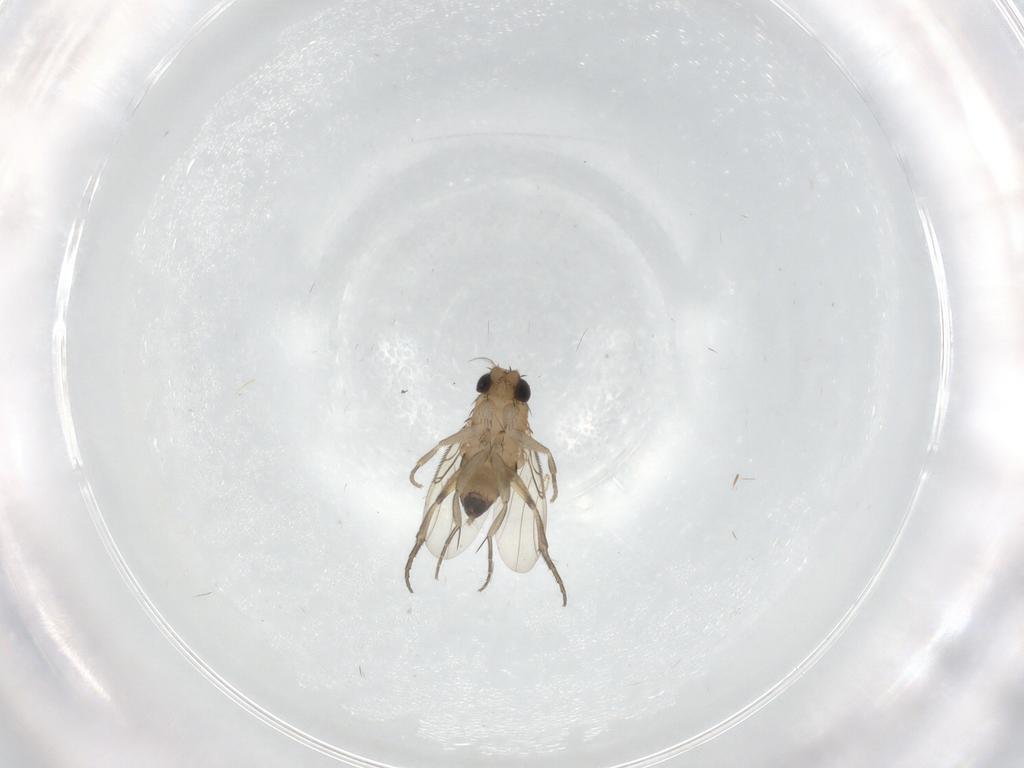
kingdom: Animalia
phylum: Arthropoda
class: Insecta
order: Diptera
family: Phoridae
